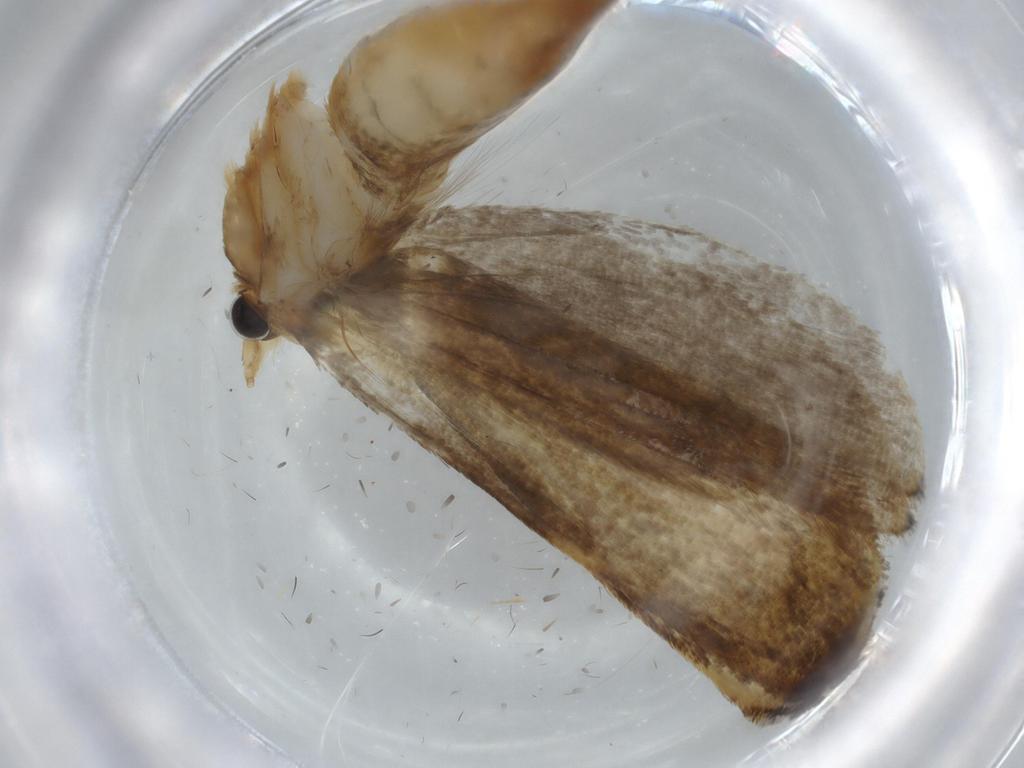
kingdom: Animalia
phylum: Arthropoda
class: Insecta
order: Lepidoptera
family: Tineidae
